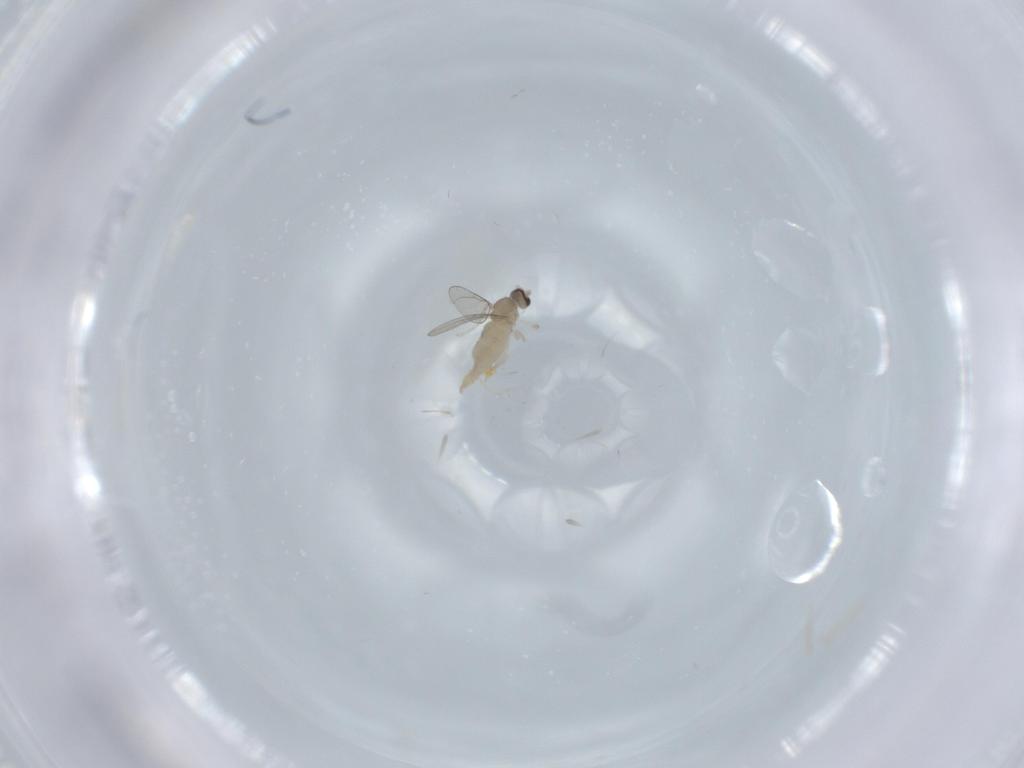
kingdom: Animalia
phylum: Arthropoda
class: Insecta
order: Diptera
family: Cecidomyiidae
